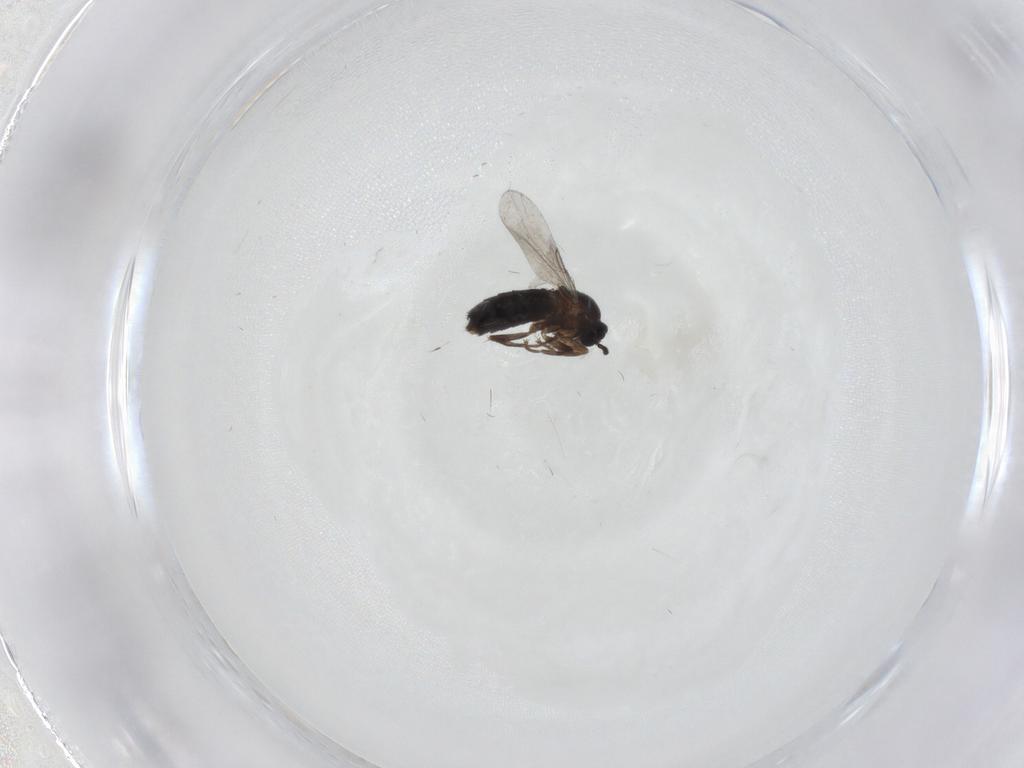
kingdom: Animalia
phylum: Arthropoda
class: Insecta
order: Diptera
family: Scatopsidae
